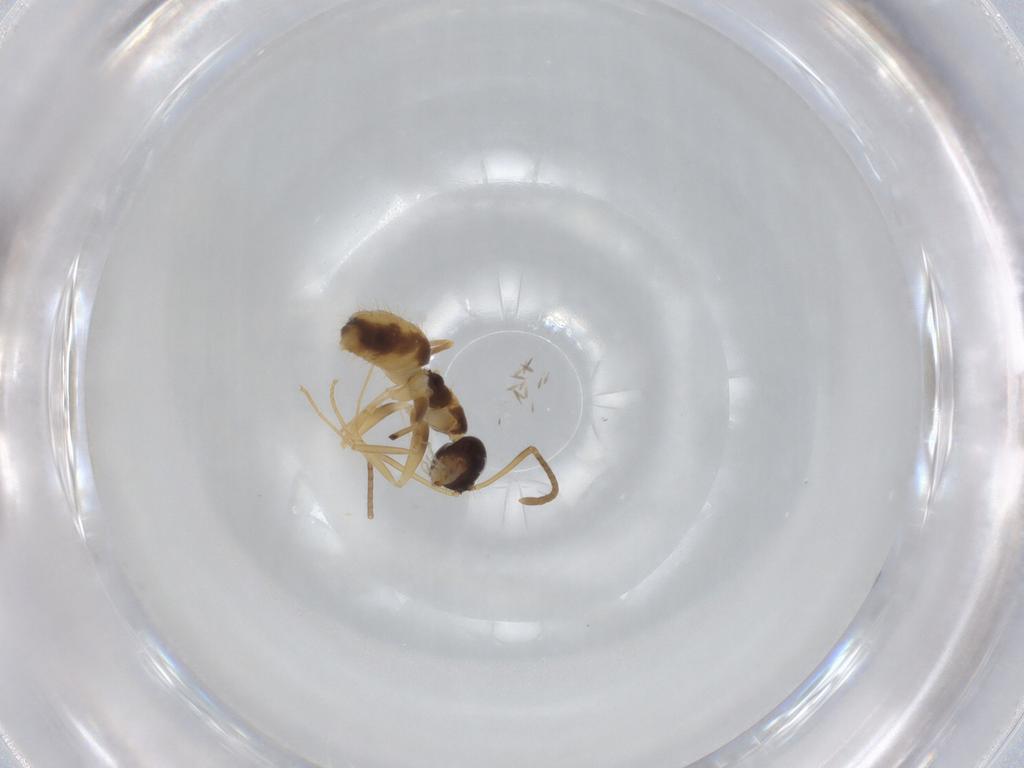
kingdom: Animalia
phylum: Arthropoda
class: Insecta
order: Hymenoptera
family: Formicidae
